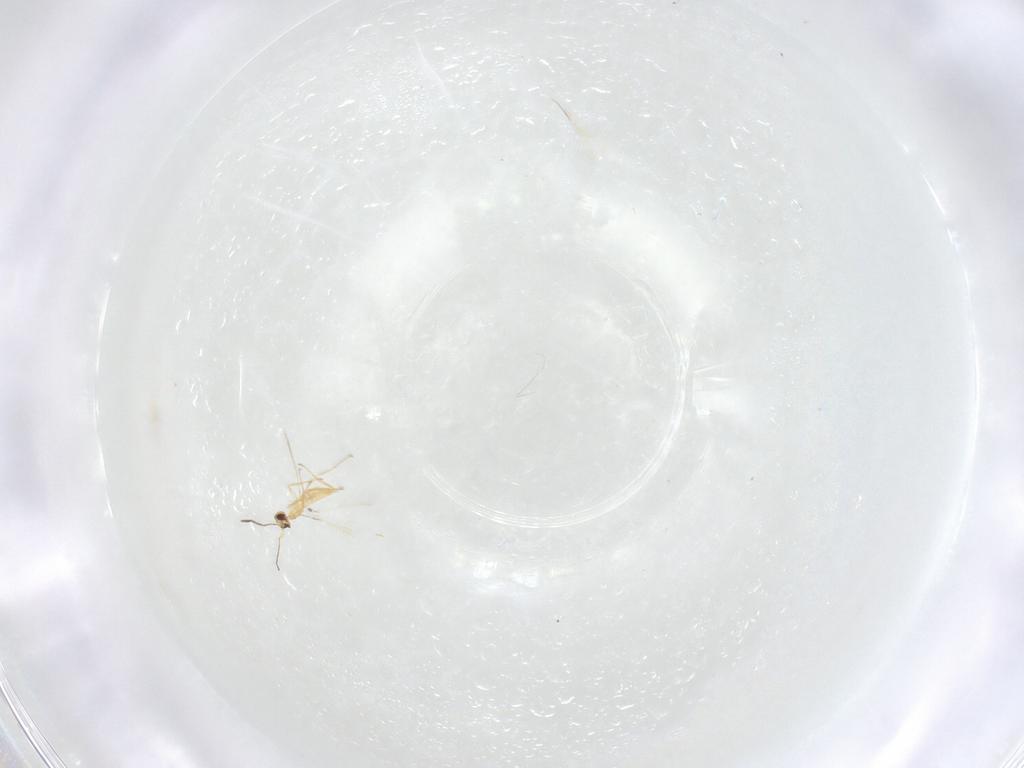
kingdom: Animalia
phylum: Arthropoda
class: Insecta
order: Hymenoptera
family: Mymaridae
